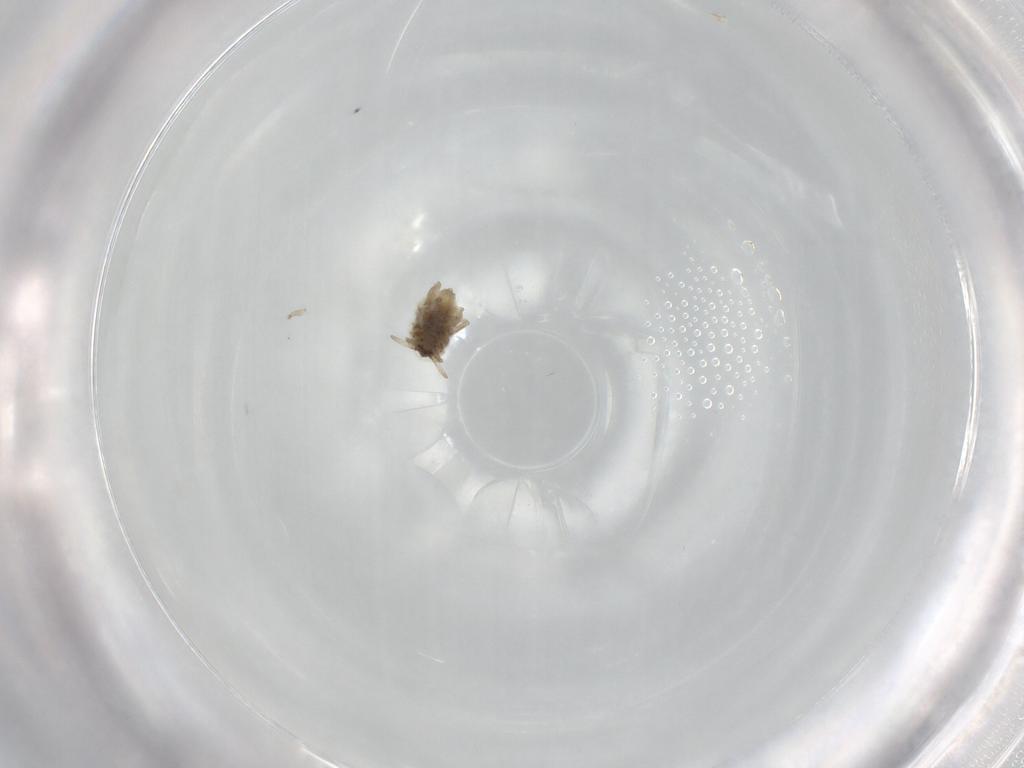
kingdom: Animalia
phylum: Arthropoda
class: Insecta
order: Neuroptera
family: Coniopterygidae
